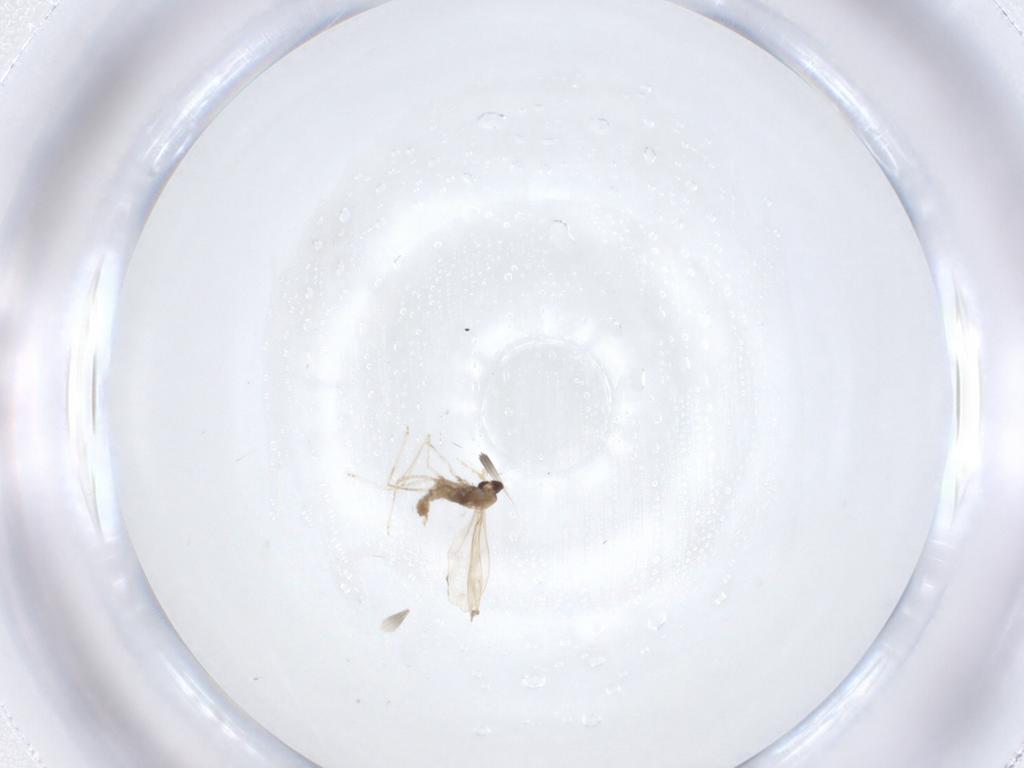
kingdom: Animalia
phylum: Arthropoda
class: Insecta
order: Diptera
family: Cecidomyiidae
